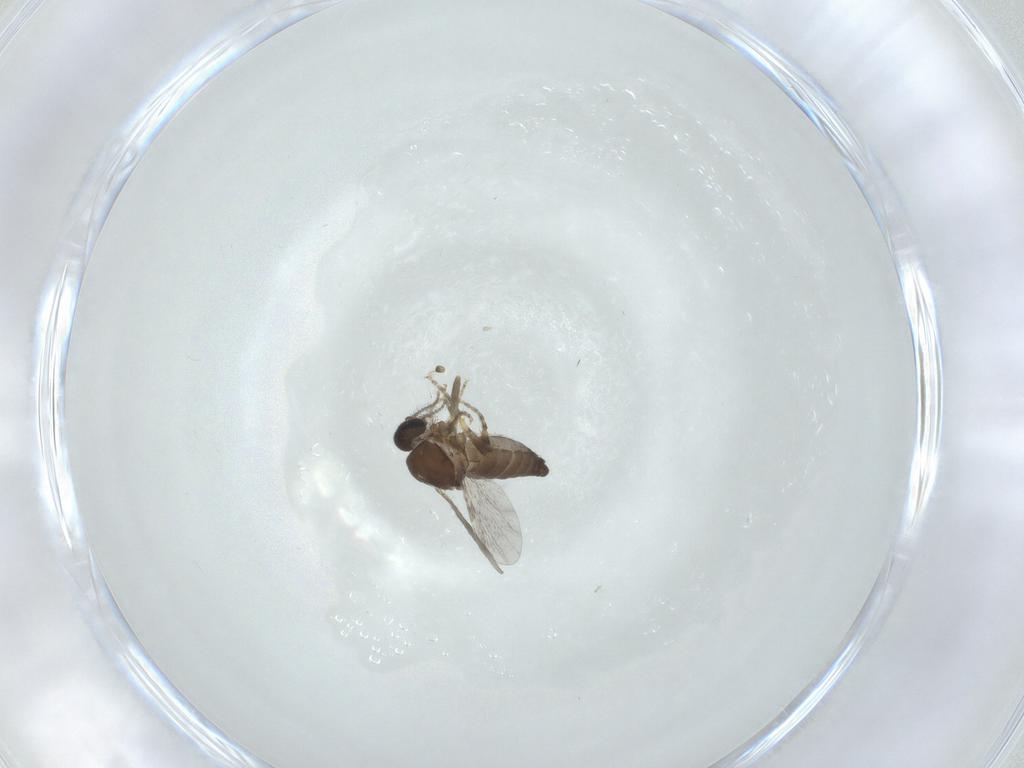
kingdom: Animalia
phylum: Arthropoda
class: Insecta
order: Diptera
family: Ceratopogonidae
